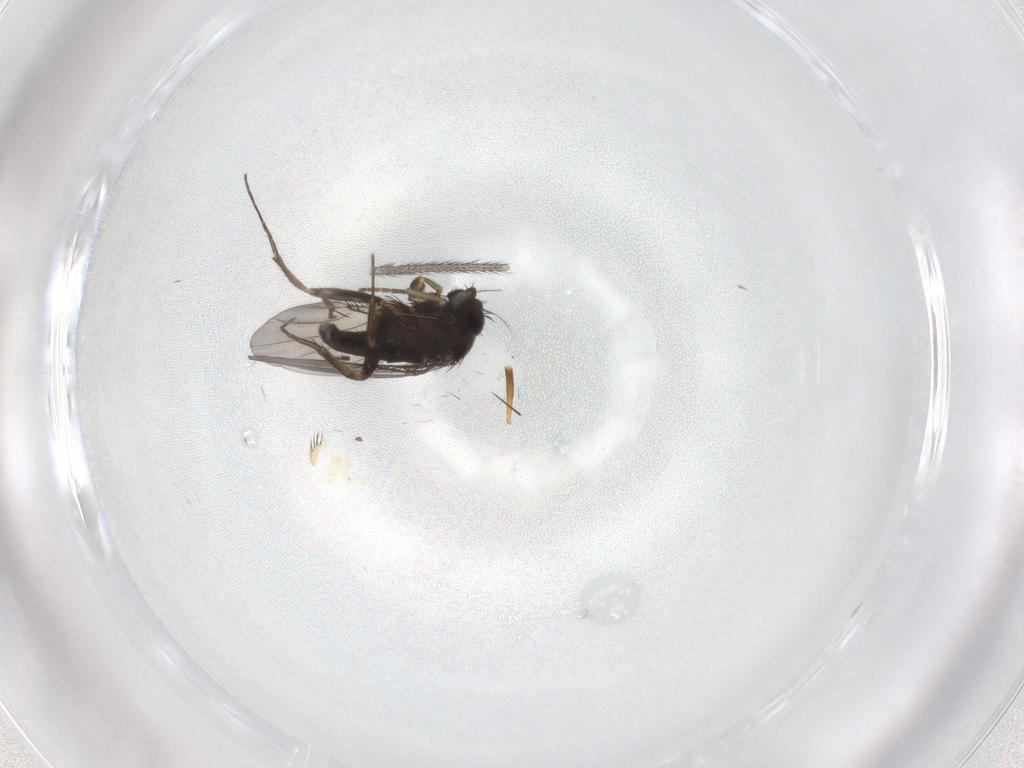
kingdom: Animalia
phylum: Arthropoda
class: Insecta
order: Diptera
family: Phoridae
